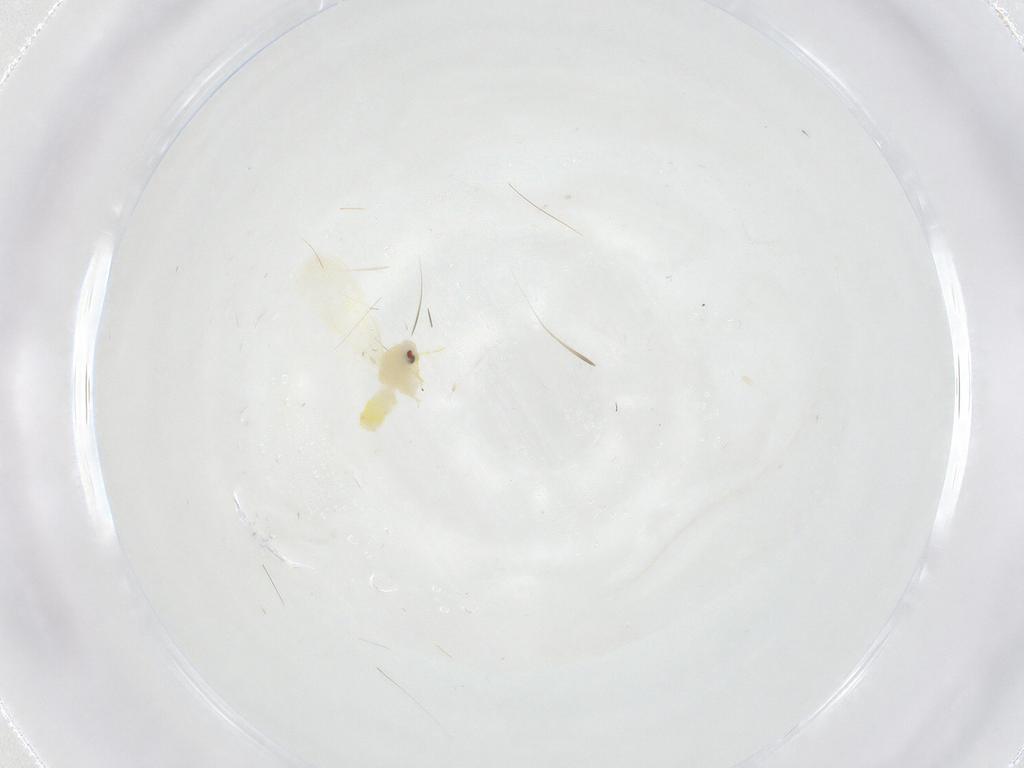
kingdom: Animalia
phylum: Arthropoda
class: Insecta
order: Hemiptera
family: Aleyrodidae
